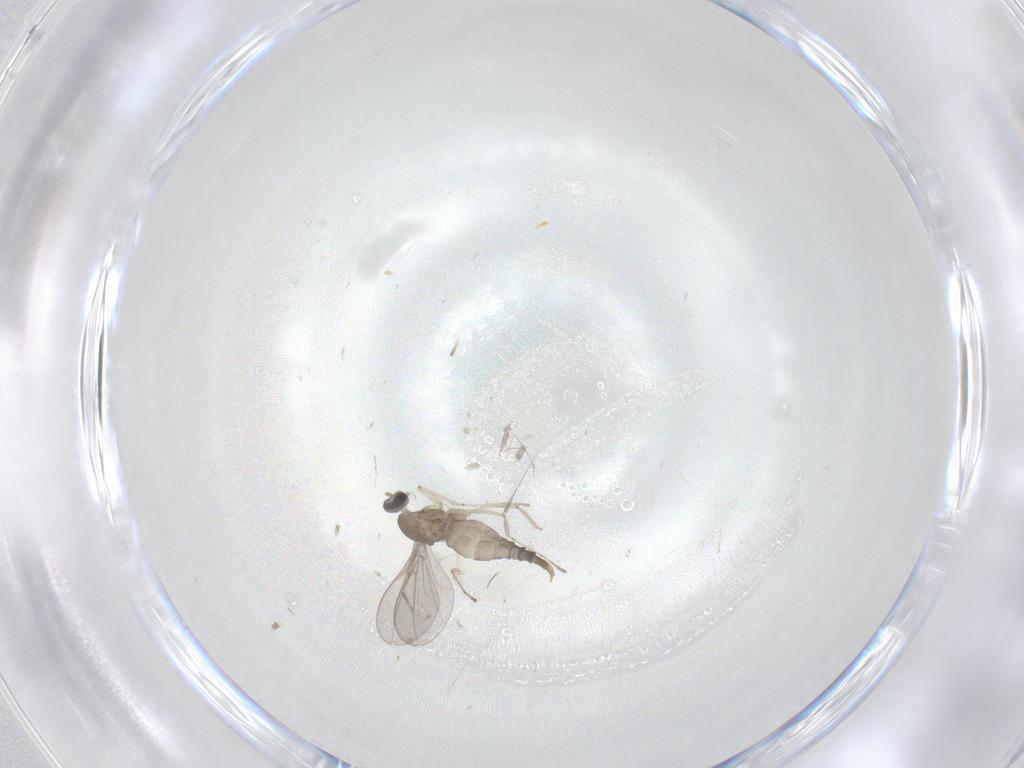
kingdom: Animalia
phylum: Arthropoda
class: Insecta
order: Diptera
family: Cecidomyiidae
